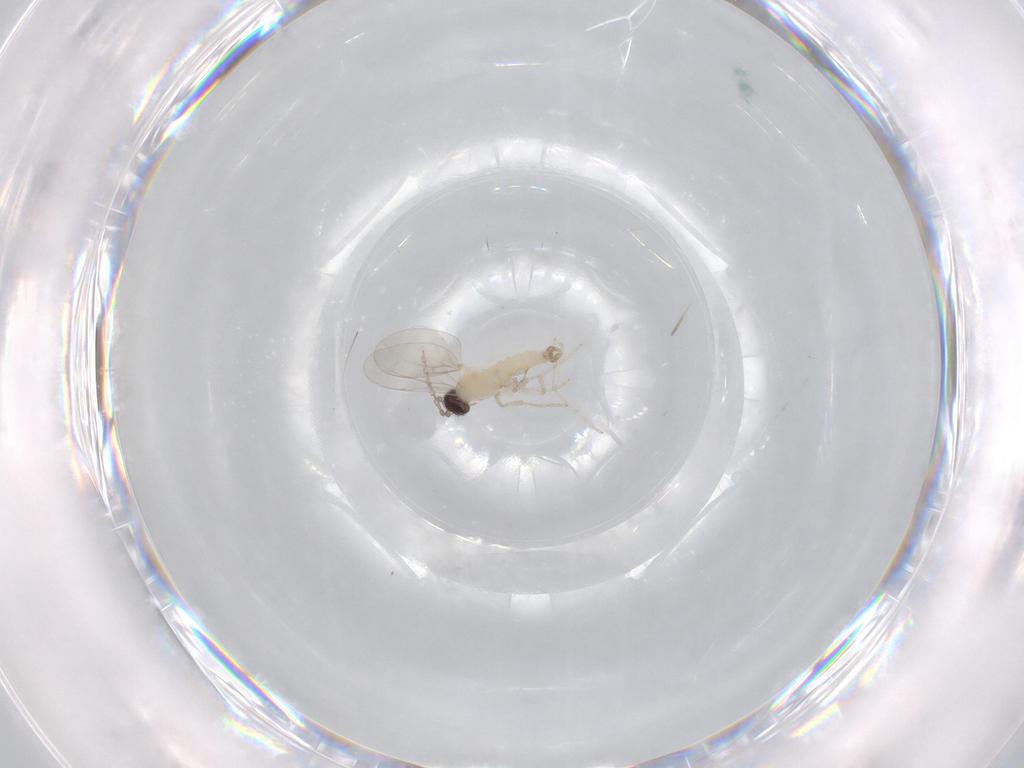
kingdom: Animalia
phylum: Arthropoda
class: Insecta
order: Diptera
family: Cecidomyiidae
